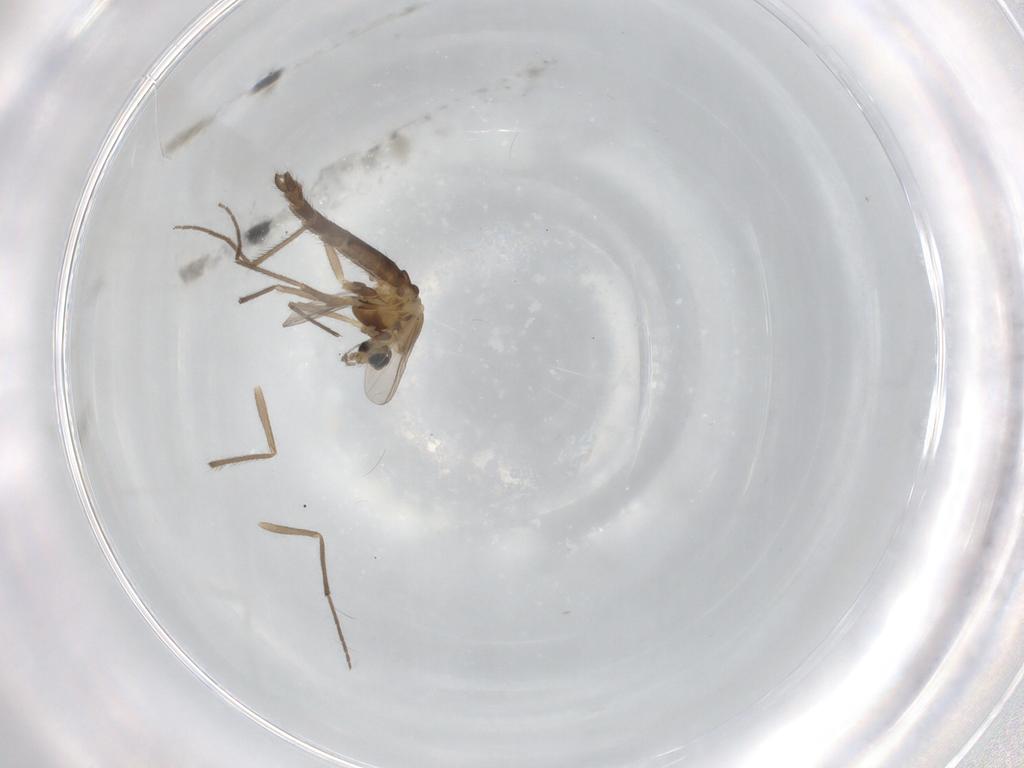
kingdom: Animalia
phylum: Arthropoda
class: Insecta
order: Diptera
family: Chironomidae
